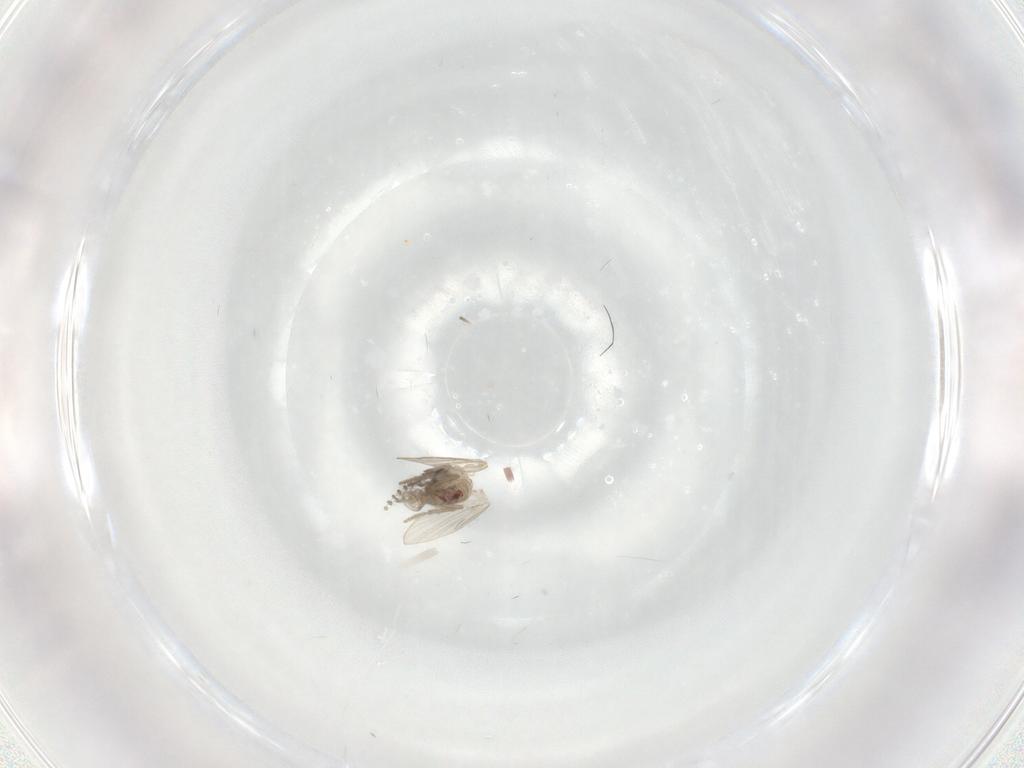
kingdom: Animalia
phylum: Arthropoda
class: Insecta
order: Diptera
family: Psychodidae
